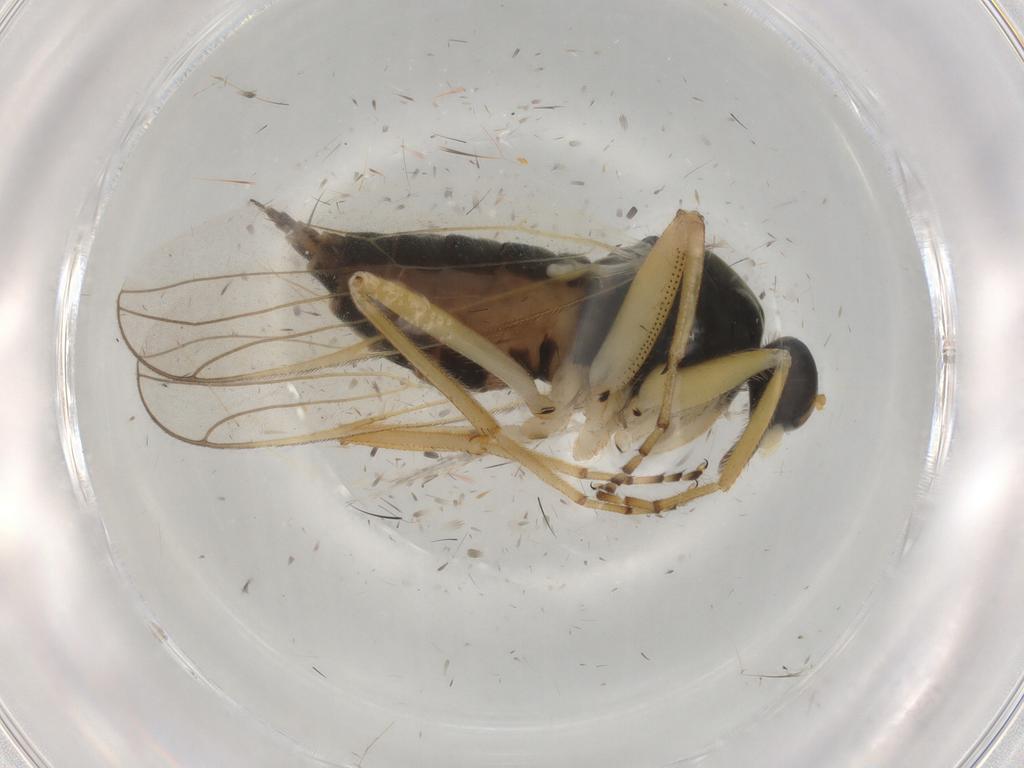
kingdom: Animalia
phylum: Arthropoda
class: Insecta
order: Diptera
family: Hybotidae
